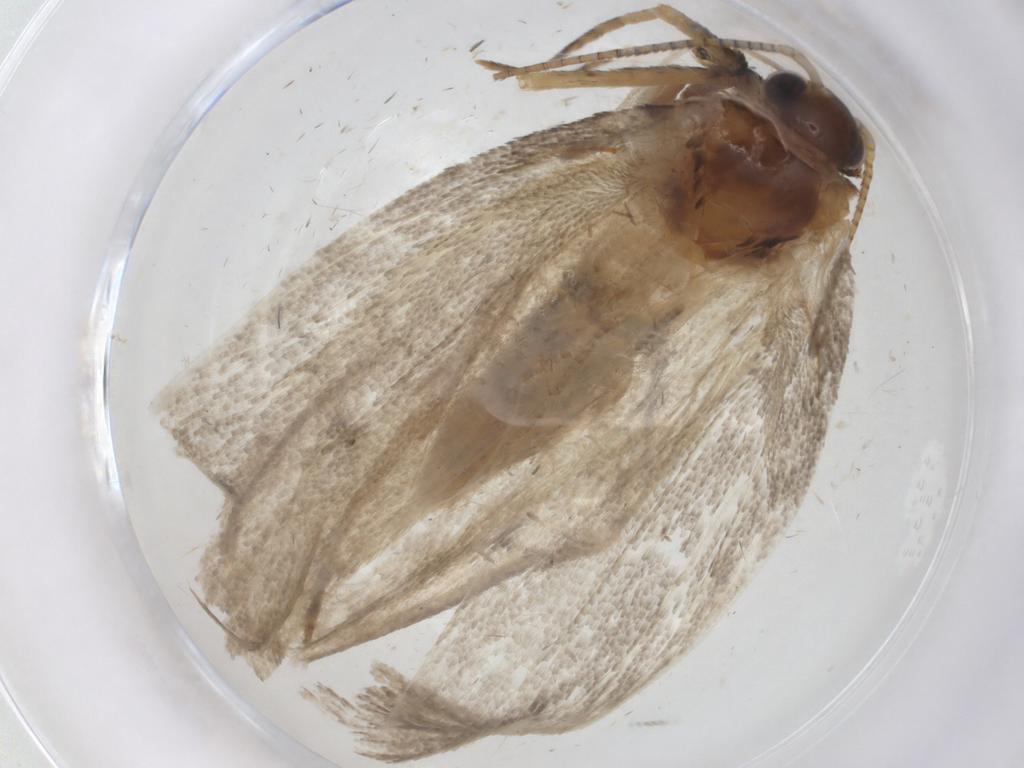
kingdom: Animalia
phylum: Arthropoda
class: Insecta
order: Lepidoptera
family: Depressariidae
